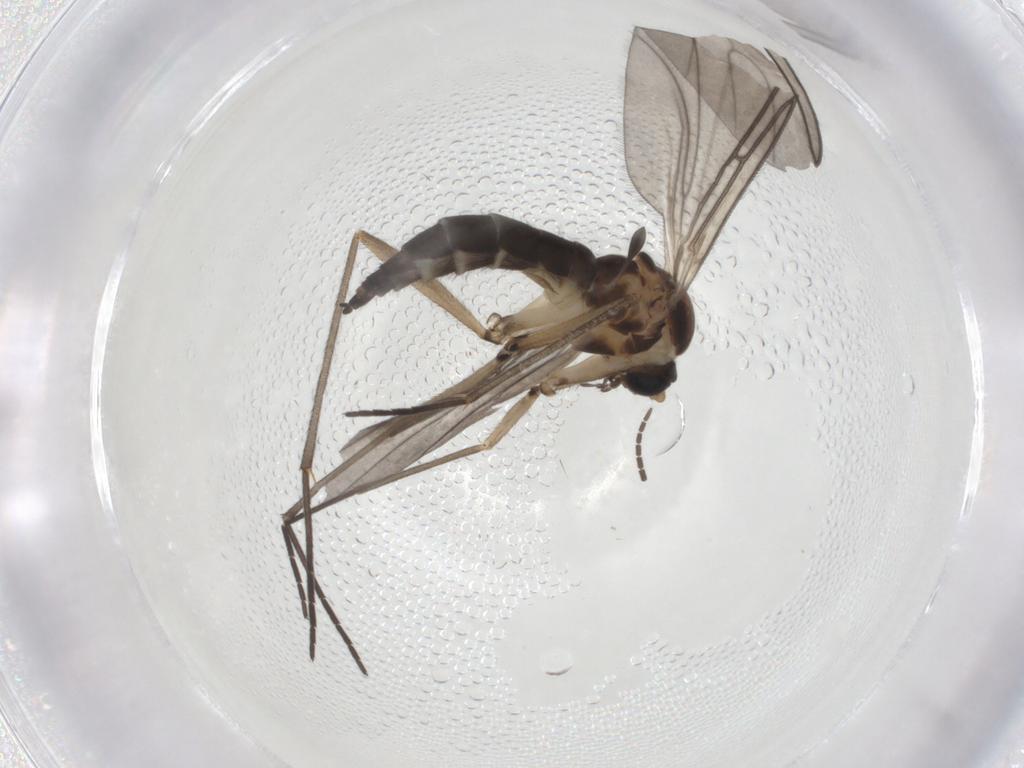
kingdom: Animalia
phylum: Arthropoda
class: Insecta
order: Diptera
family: Sciaridae
